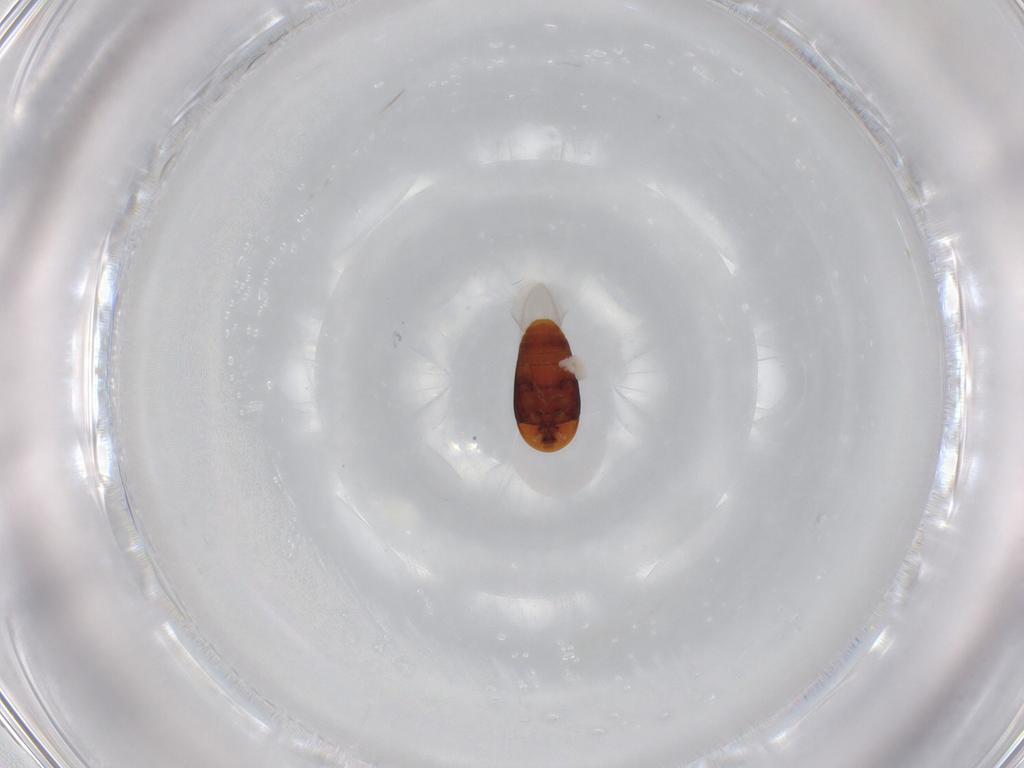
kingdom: Animalia
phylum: Arthropoda
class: Insecta
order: Coleoptera
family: Corylophidae
